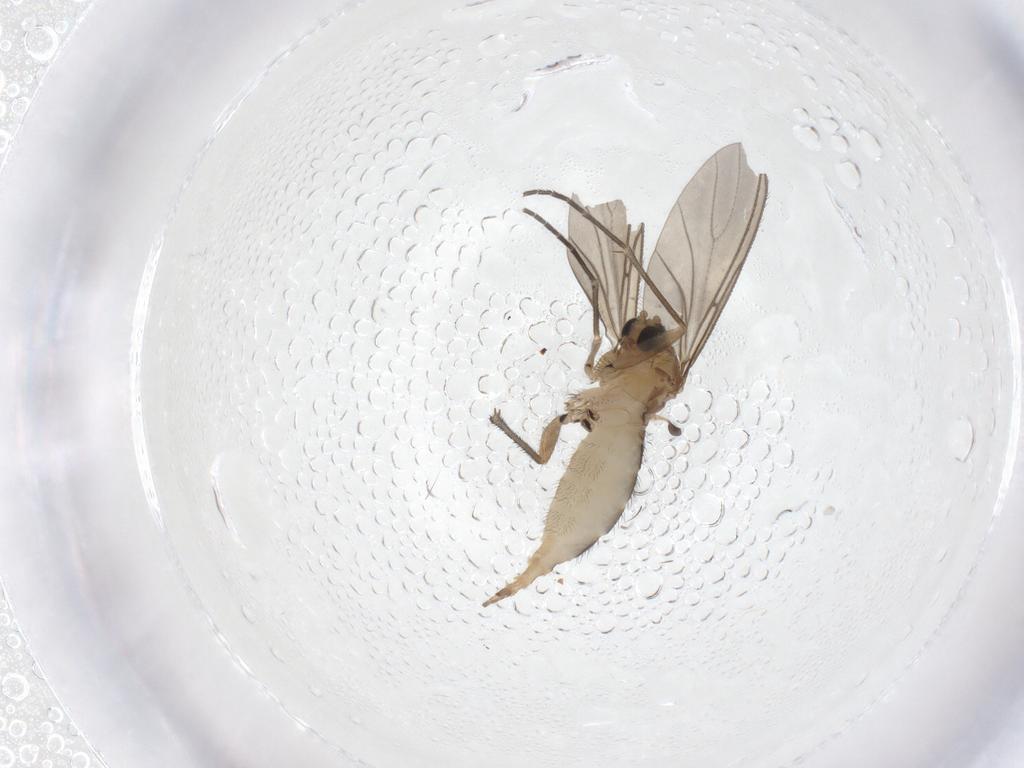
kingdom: Animalia
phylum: Arthropoda
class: Insecta
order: Diptera
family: Sciaridae
